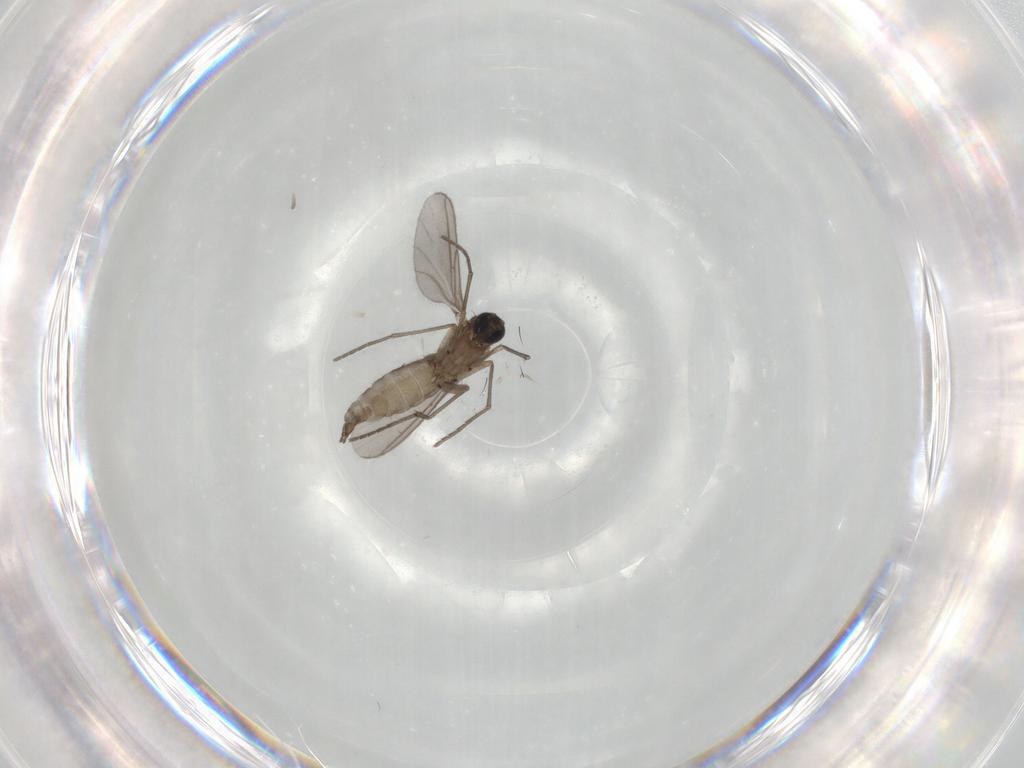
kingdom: Animalia
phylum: Arthropoda
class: Insecta
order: Diptera
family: Sciaridae
